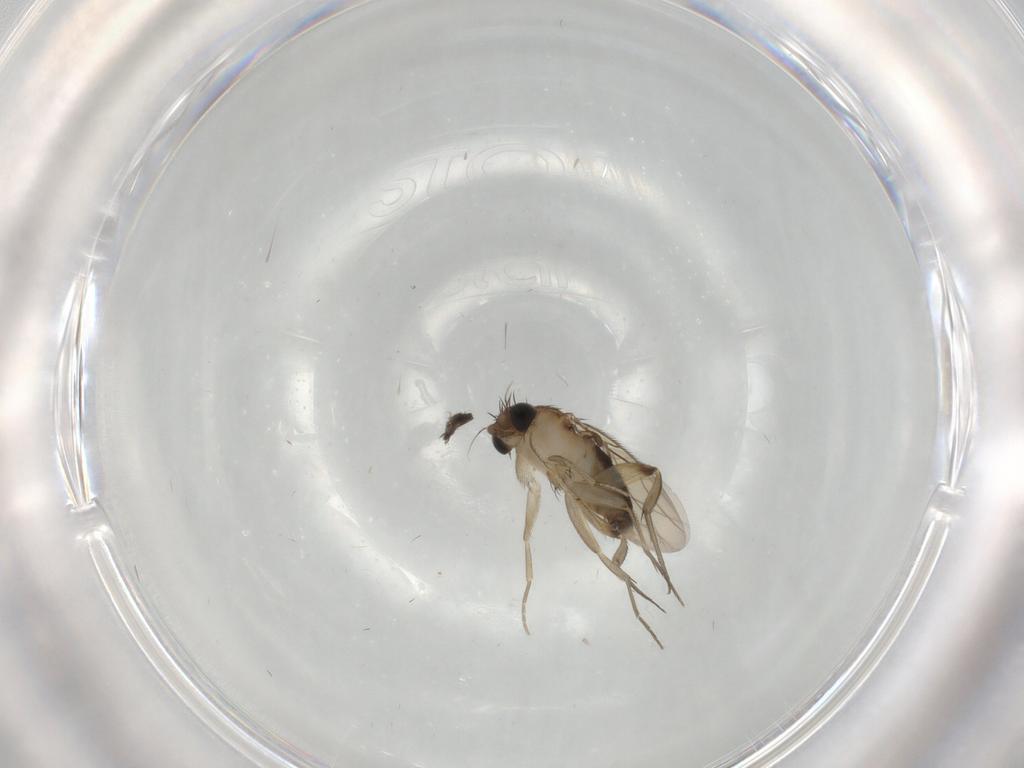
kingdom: Animalia
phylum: Arthropoda
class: Insecta
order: Diptera
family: Phoridae
